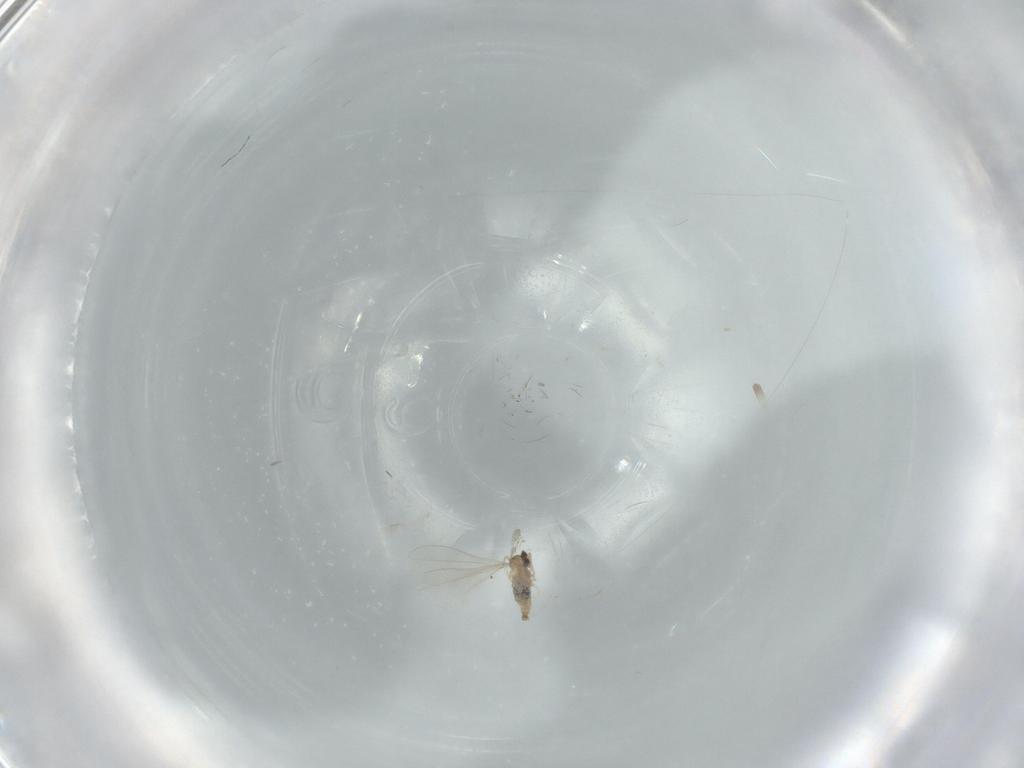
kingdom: Animalia
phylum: Arthropoda
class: Insecta
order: Diptera
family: Cecidomyiidae
